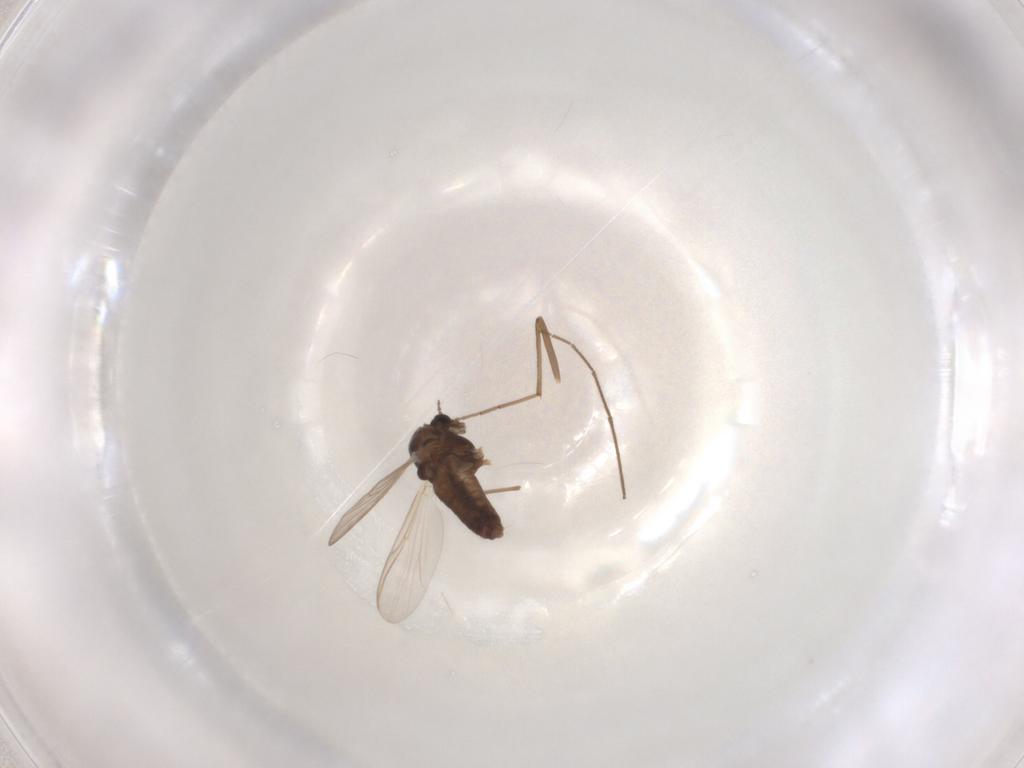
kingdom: Animalia
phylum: Arthropoda
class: Insecta
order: Diptera
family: Chironomidae
